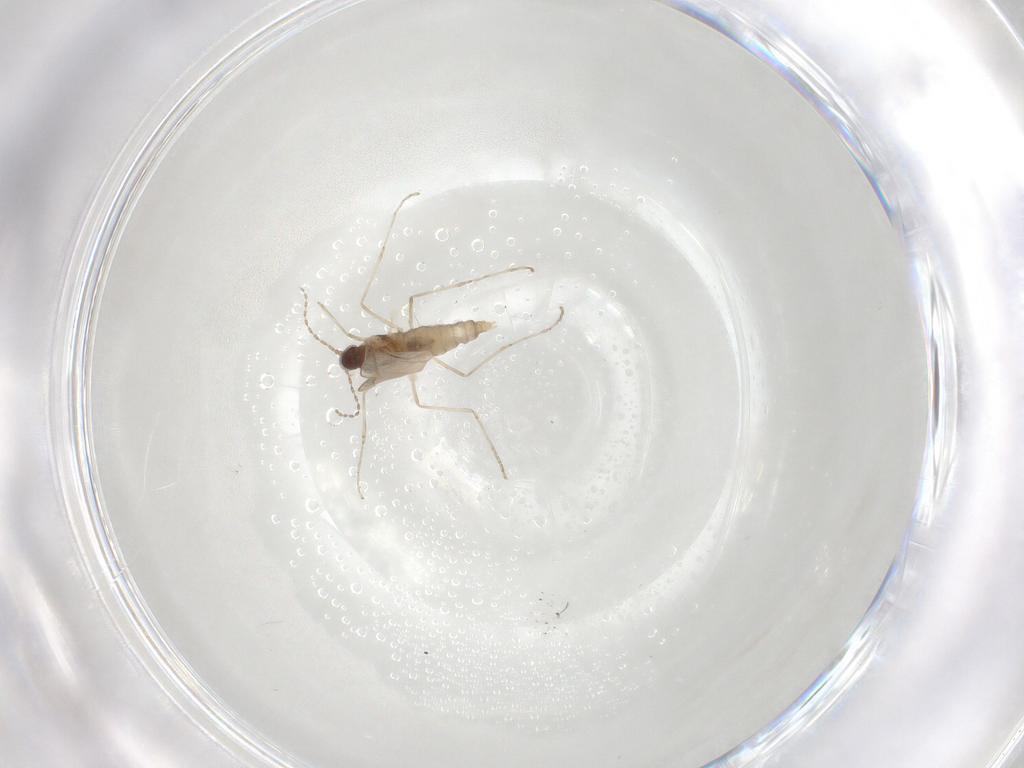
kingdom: Animalia
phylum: Arthropoda
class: Insecta
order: Diptera
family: Cecidomyiidae
